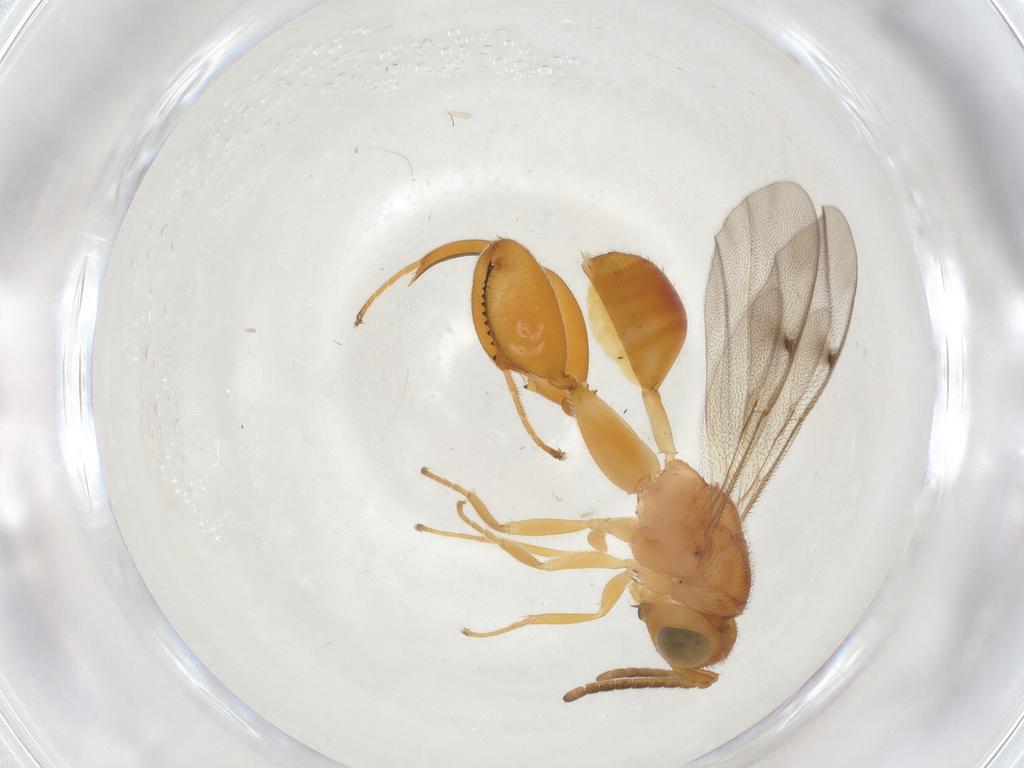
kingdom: Animalia
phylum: Arthropoda
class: Insecta
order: Hymenoptera
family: Chalcididae
